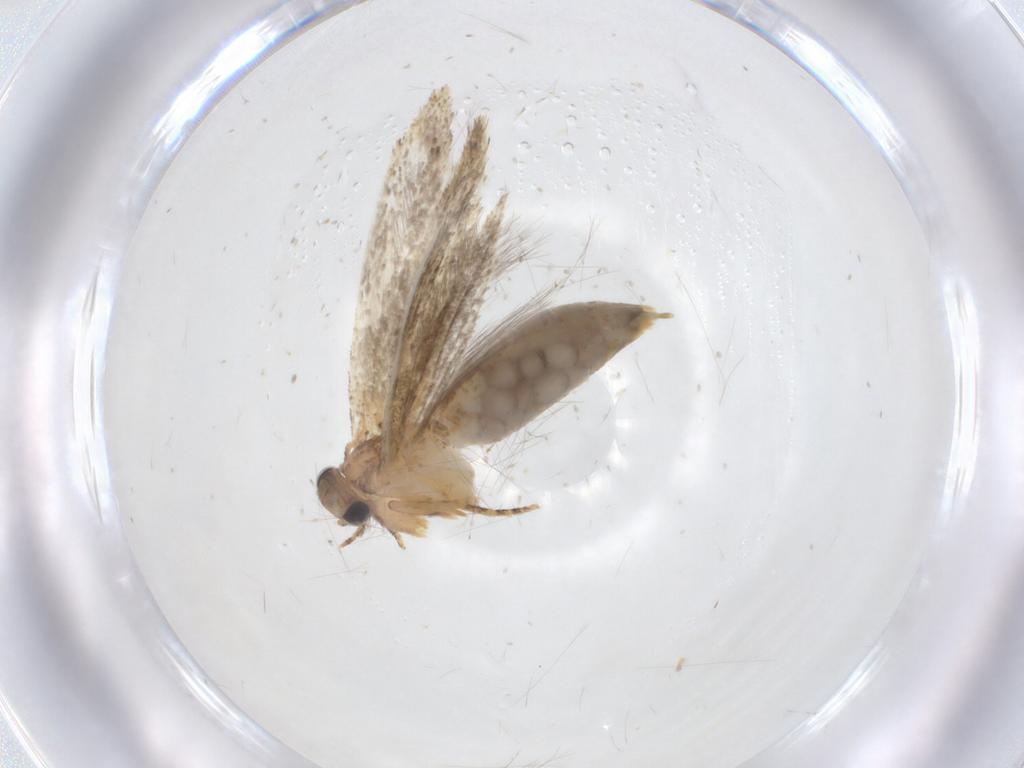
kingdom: Animalia
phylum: Arthropoda
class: Insecta
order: Lepidoptera
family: Tineidae
